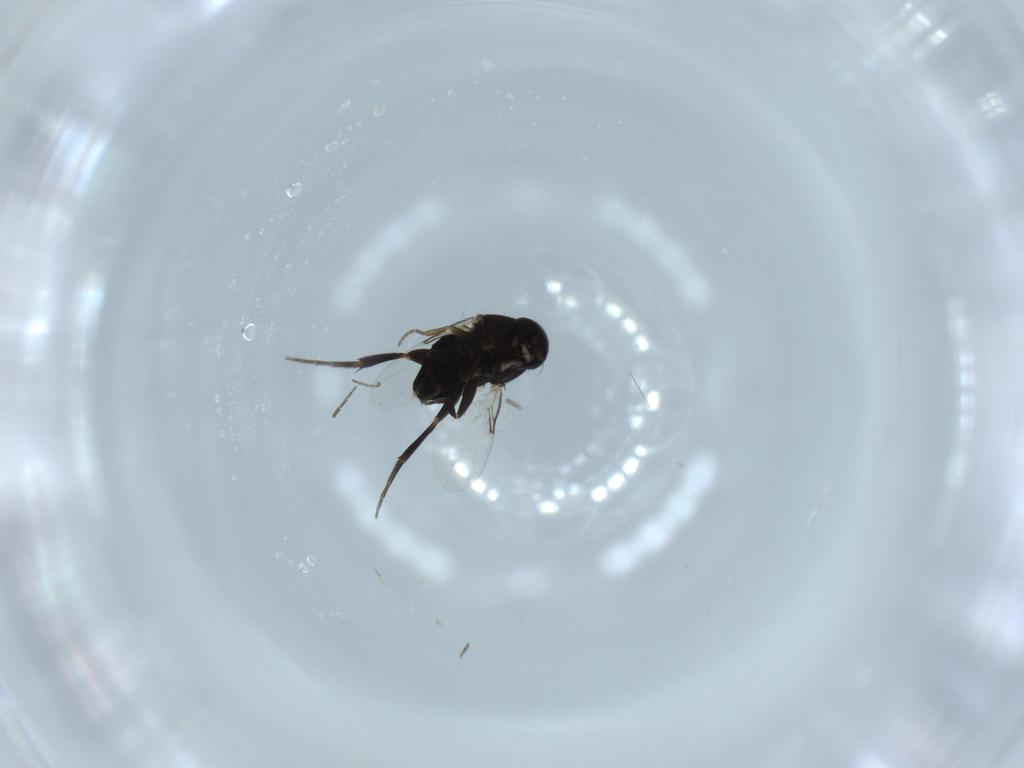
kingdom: Animalia
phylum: Arthropoda
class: Insecta
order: Diptera
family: Phoridae
